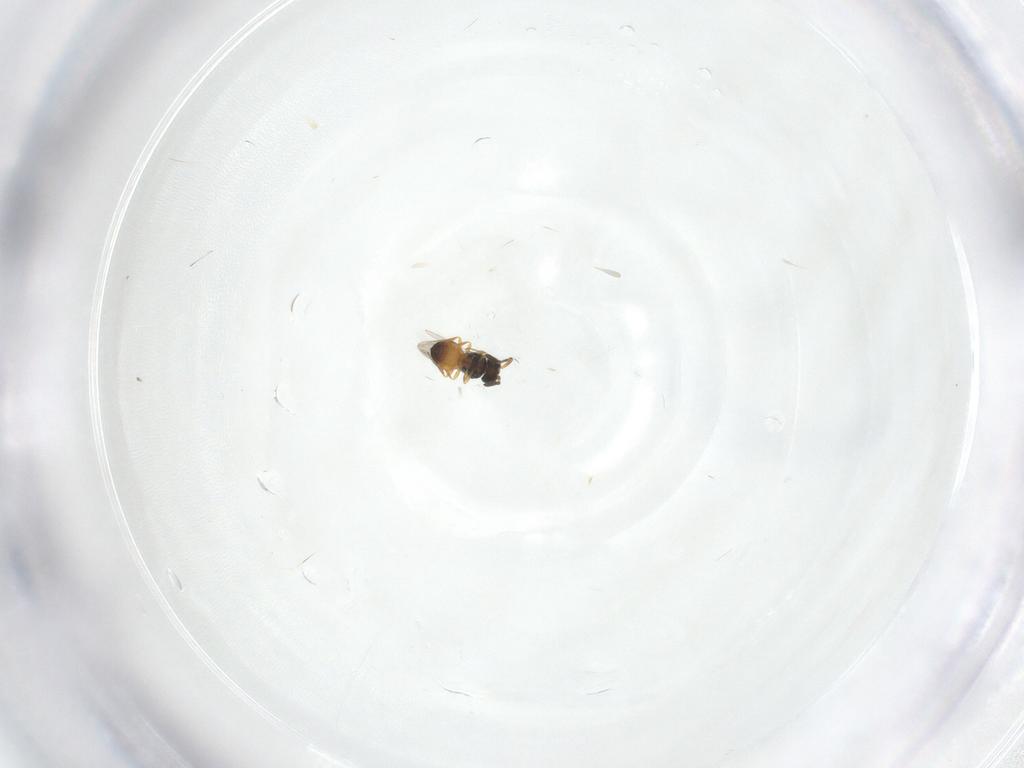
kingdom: Animalia
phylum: Arthropoda
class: Insecta
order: Hymenoptera
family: Scelionidae
